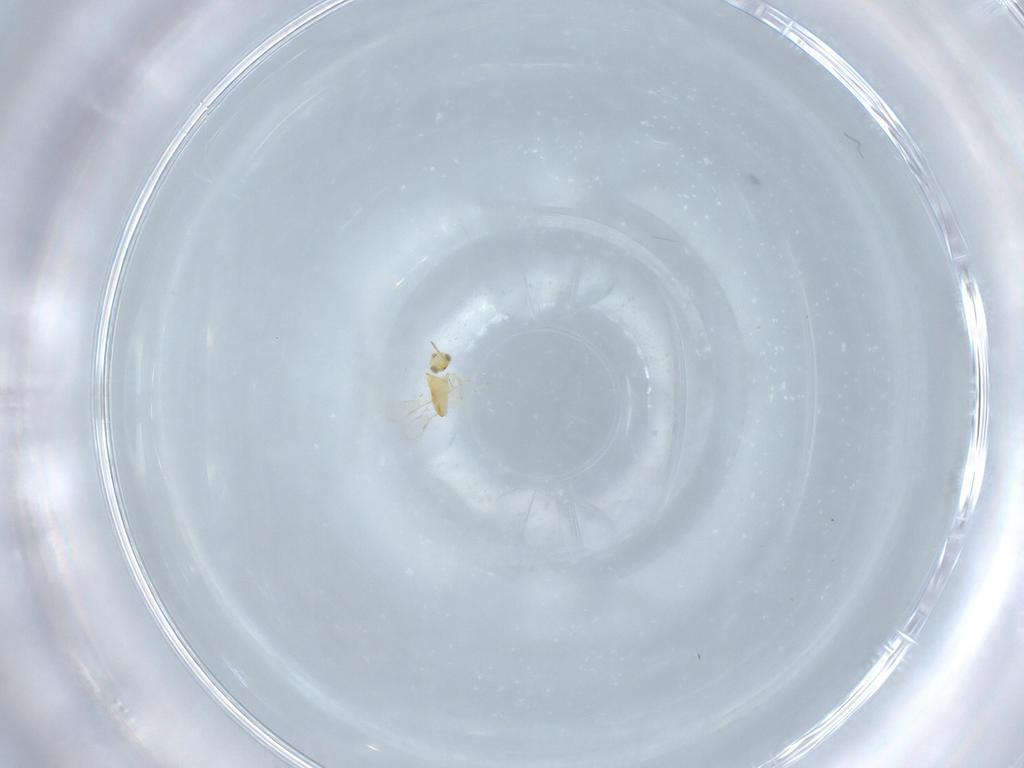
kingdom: Animalia
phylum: Arthropoda
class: Insecta
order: Hymenoptera
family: Aphelinidae
